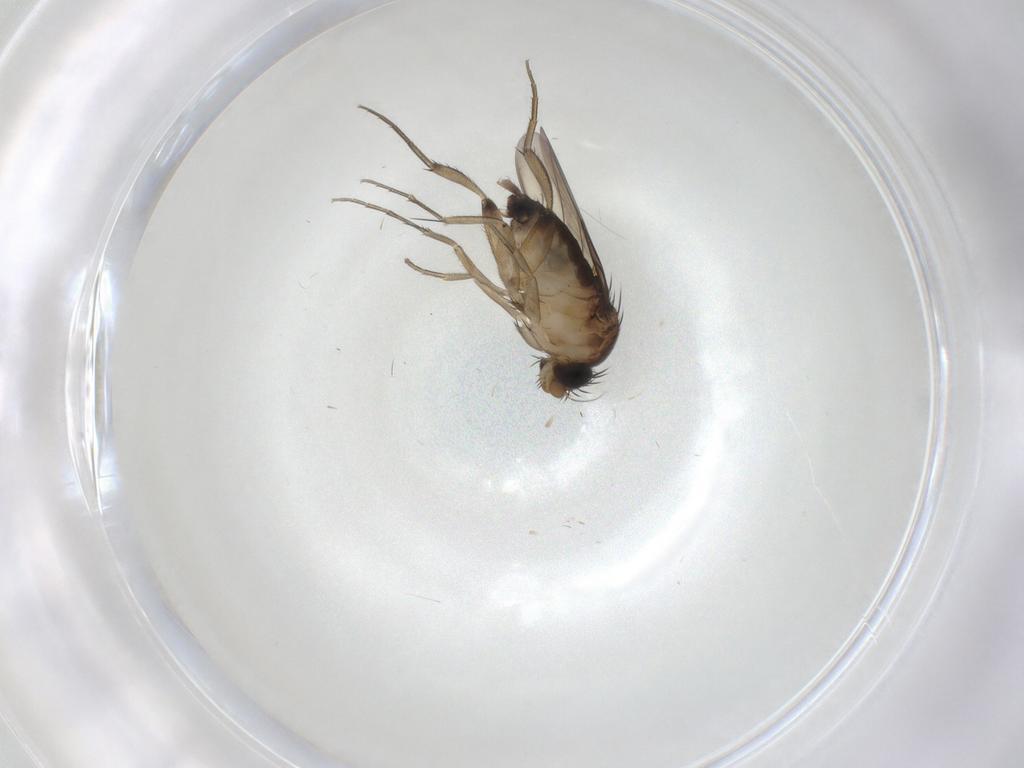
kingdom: Animalia
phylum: Arthropoda
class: Insecta
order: Diptera
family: Phoridae
